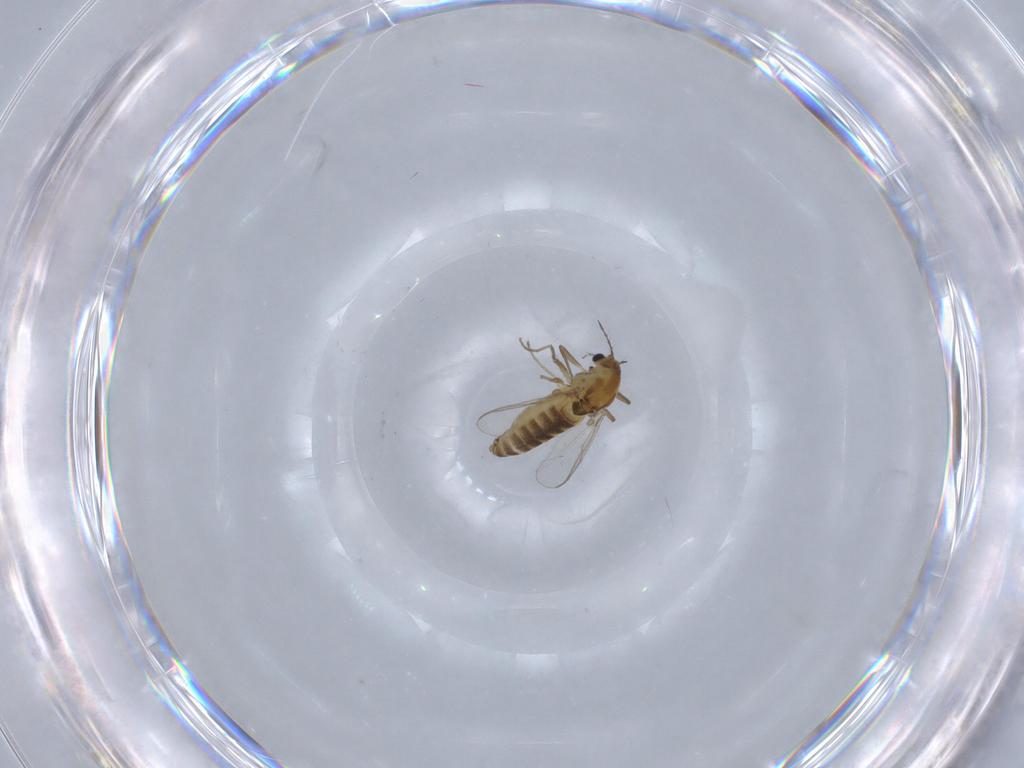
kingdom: Animalia
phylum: Arthropoda
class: Insecta
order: Diptera
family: Chironomidae
